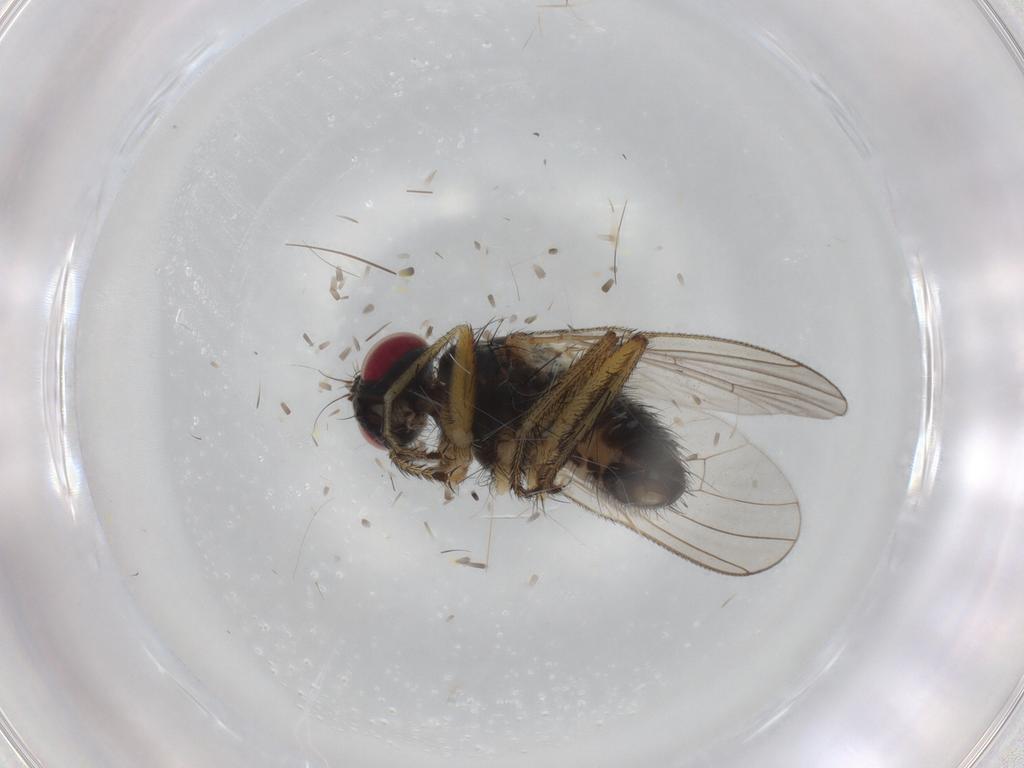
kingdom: Animalia
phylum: Arthropoda
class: Insecta
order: Diptera
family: Muscidae
